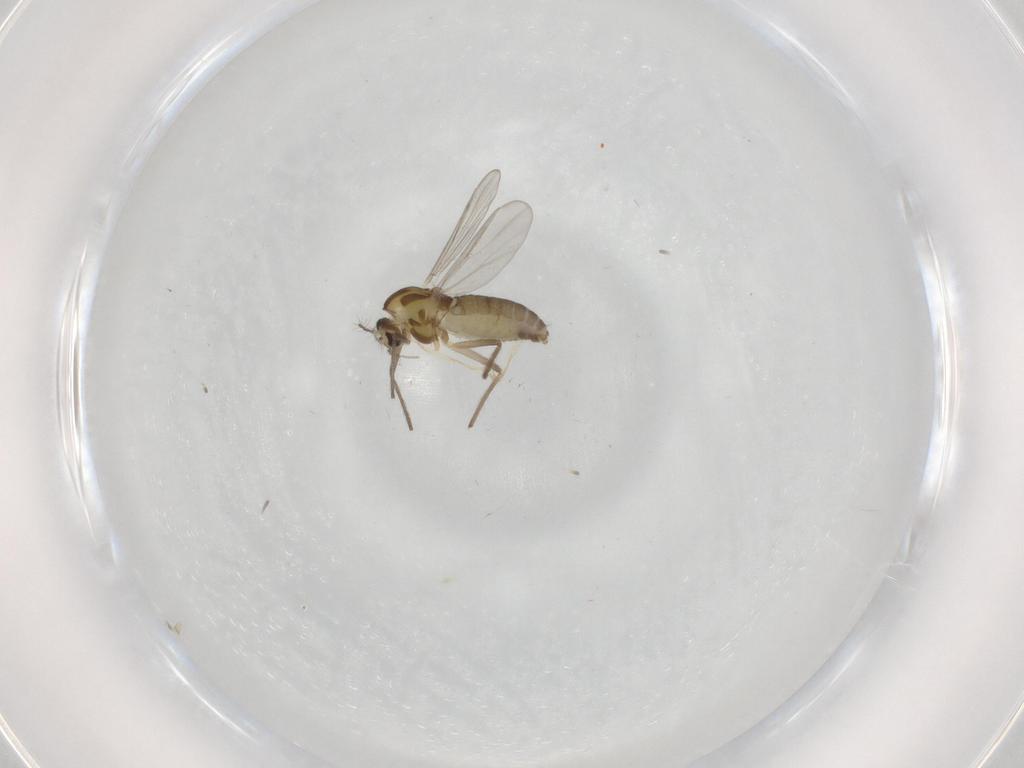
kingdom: Animalia
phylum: Arthropoda
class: Insecta
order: Diptera
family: Chironomidae
